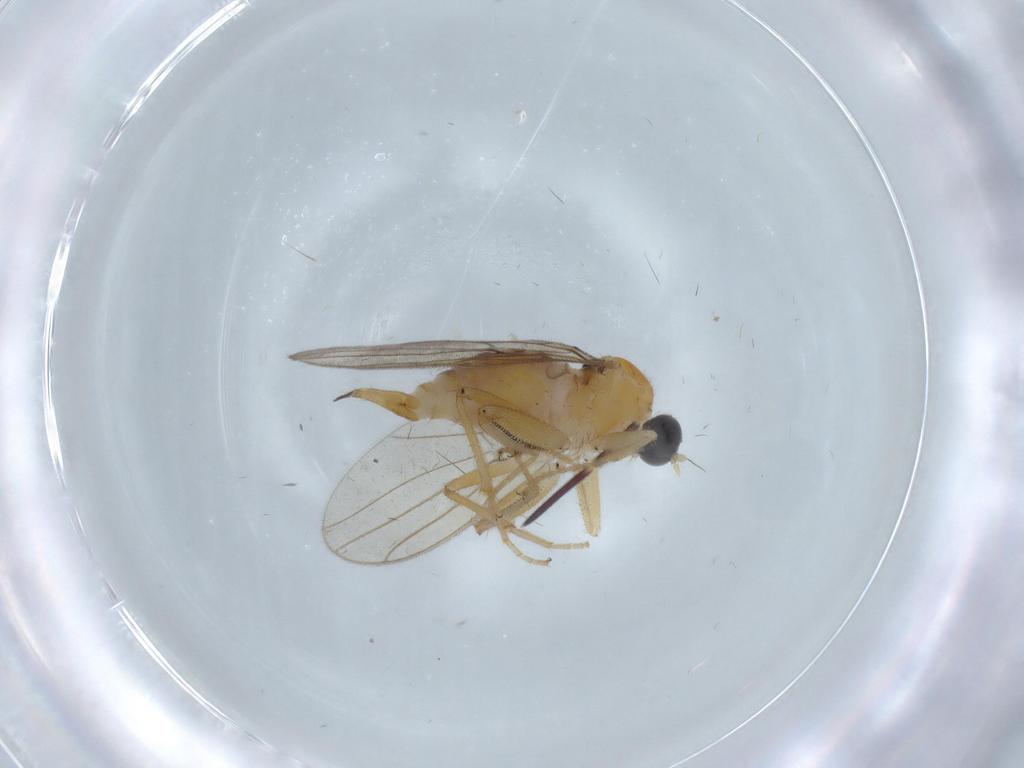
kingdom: Animalia
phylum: Arthropoda
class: Insecta
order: Diptera
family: Hybotidae
